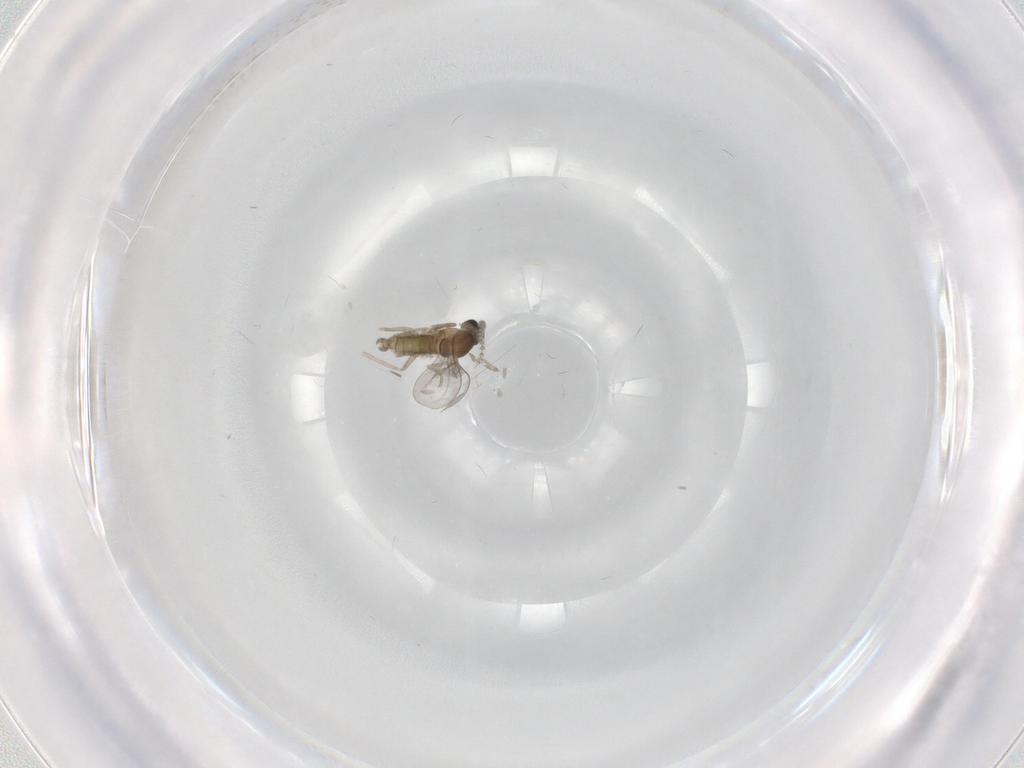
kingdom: Animalia
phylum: Arthropoda
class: Insecta
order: Diptera
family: Cecidomyiidae
